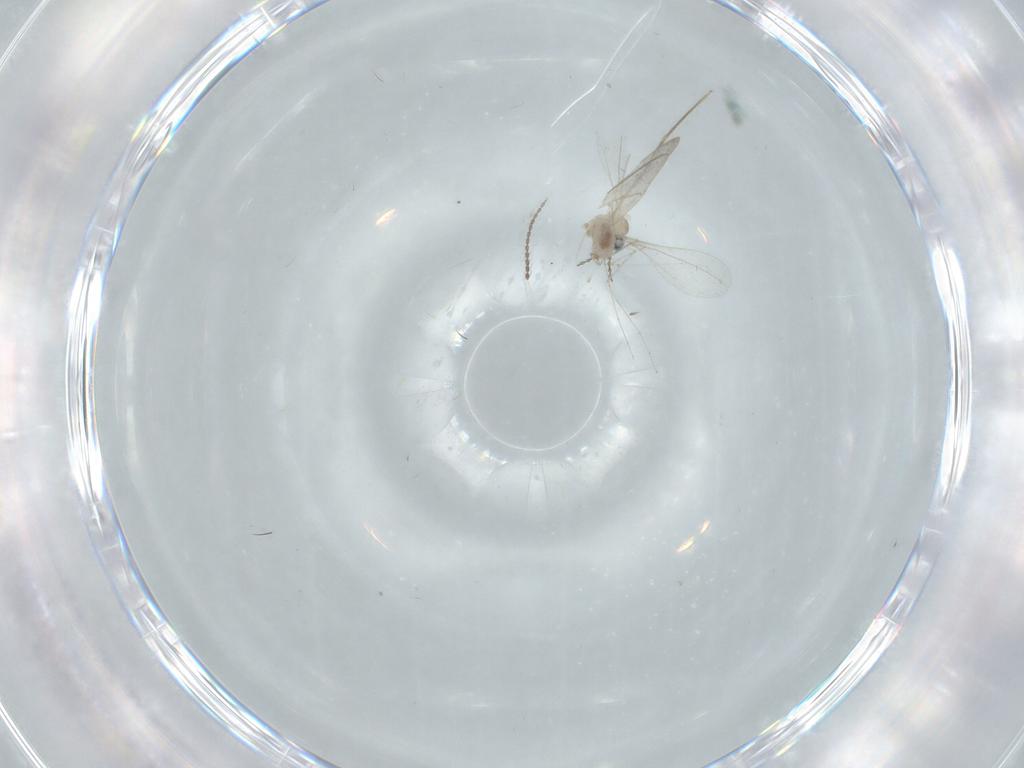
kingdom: Animalia
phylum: Arthropoda
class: Insecta
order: Diptera
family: Cecidomyiidae
